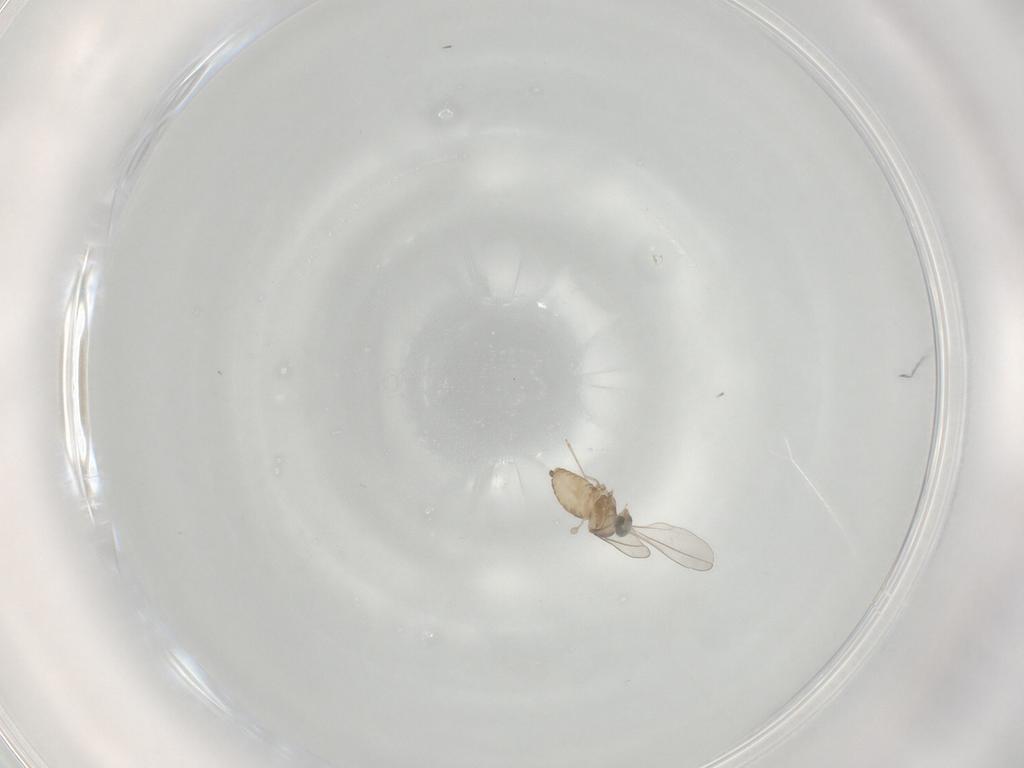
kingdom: Animalia
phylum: Arthropoda
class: Insecta
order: Diptera
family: Cecidomyiidae
